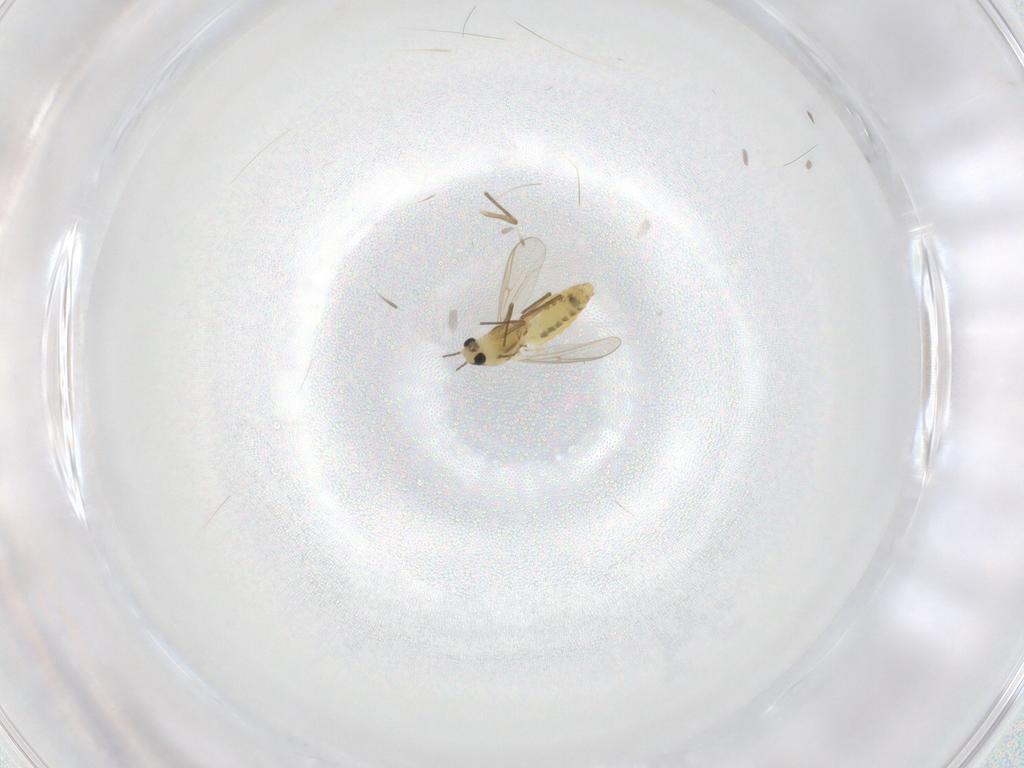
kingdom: Animalia
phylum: Arthropoda
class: Insecta
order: Diptera
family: Chironomidae
